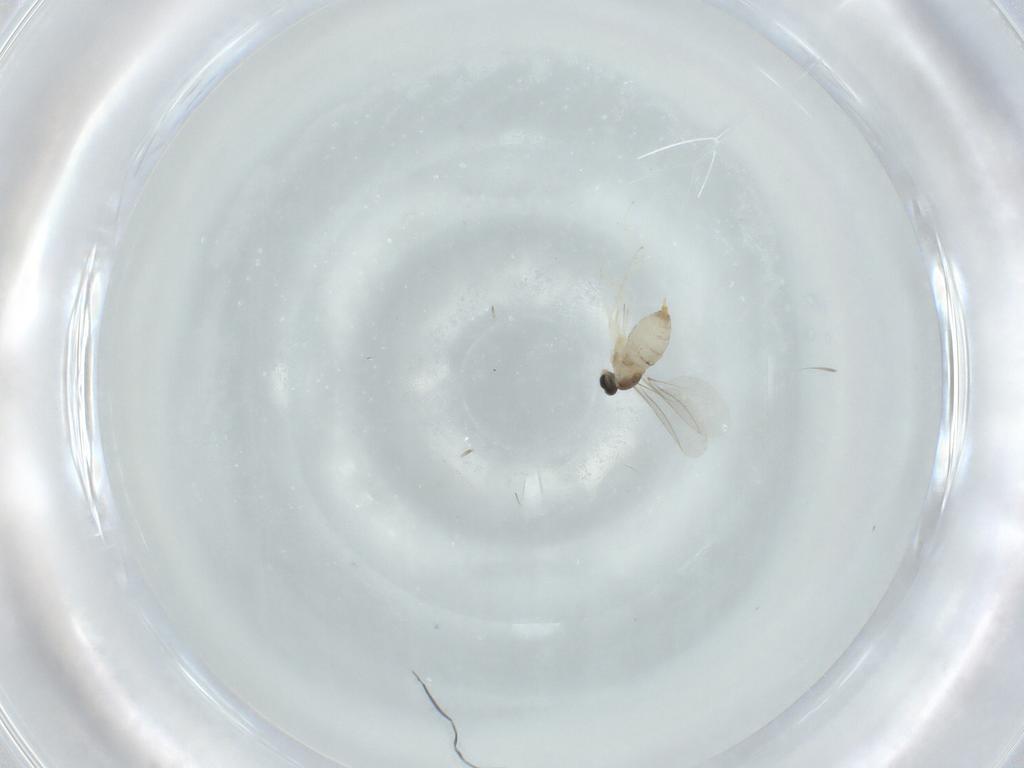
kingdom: Animalia
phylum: Arthropoda
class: Insecta
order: Diptera
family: Cecidomyiidae
